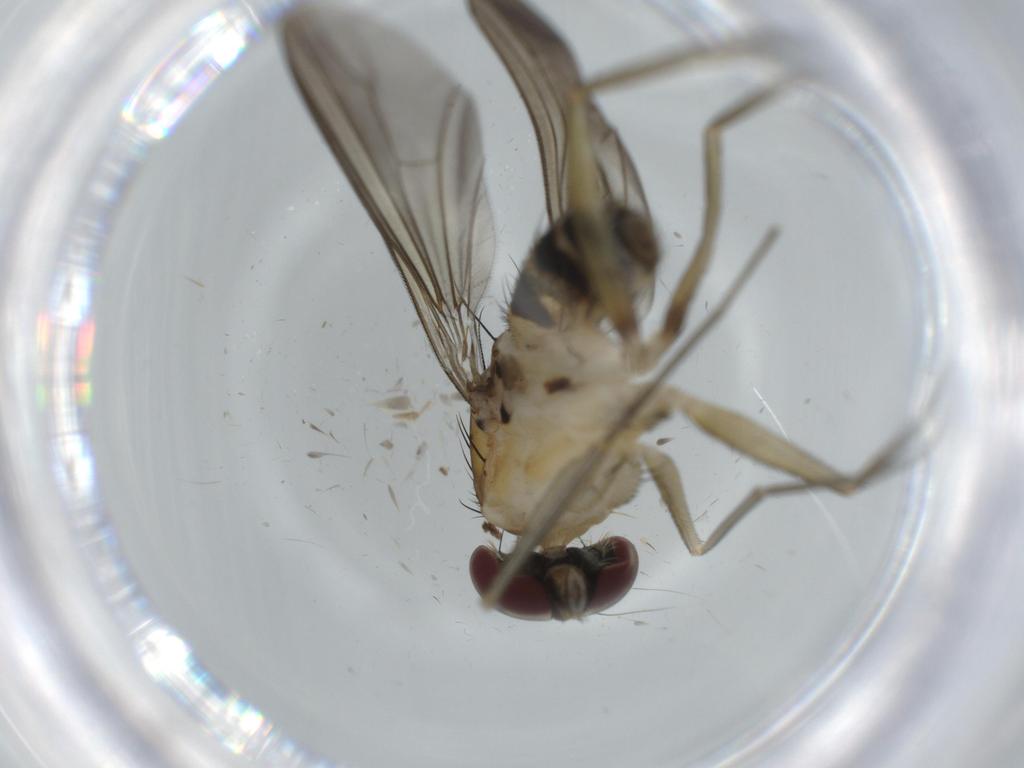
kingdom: Animalia
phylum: Arthropoda
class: Insecta
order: Diptera
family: Dolichopodidae
